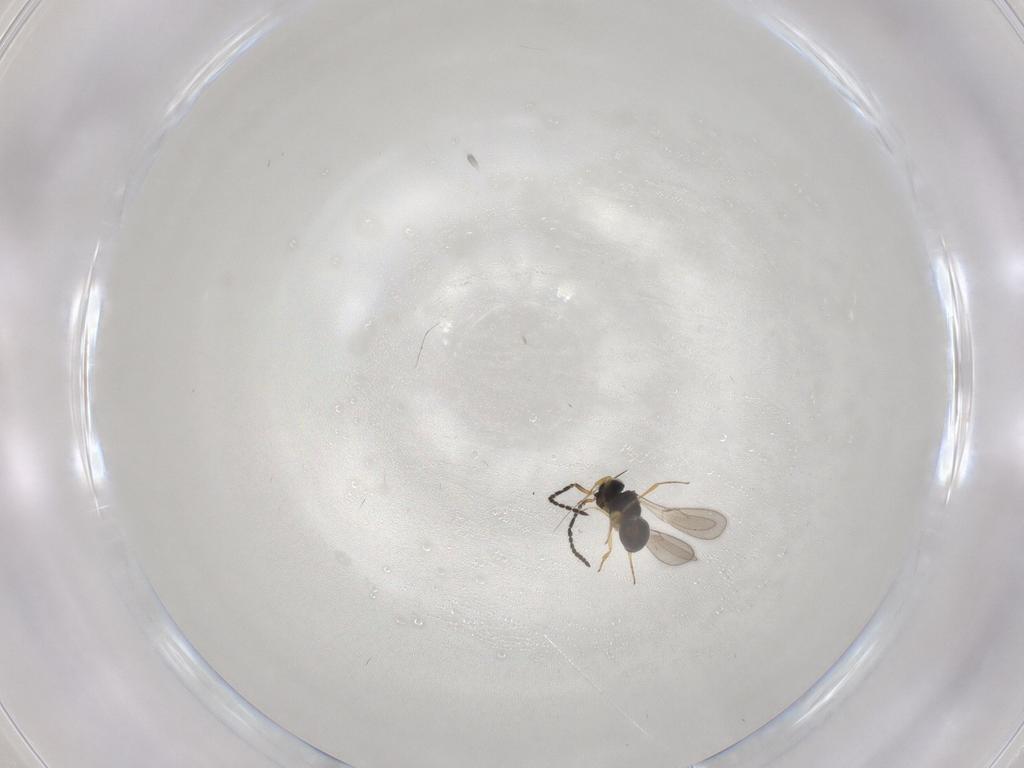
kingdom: Animalia
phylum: Arthropoda
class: Insecta
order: Hymenoptera
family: Scelionidae
